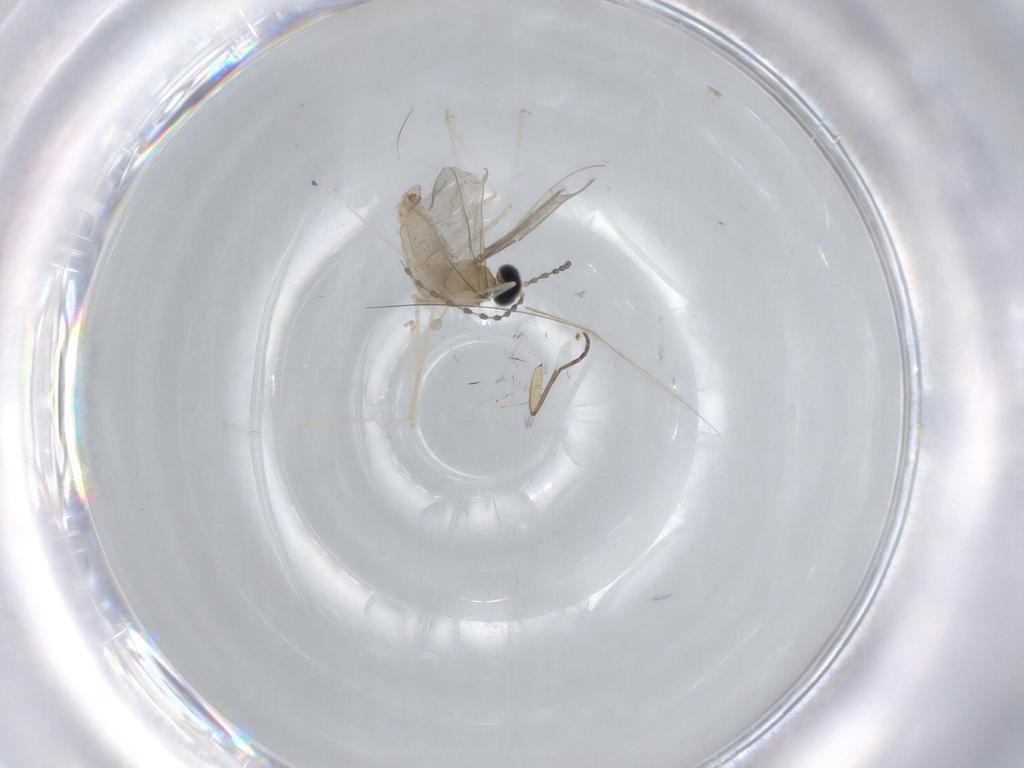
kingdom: Animalia
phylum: Arthropoda
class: Insecta
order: Diptera
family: Cecidomyiidae
